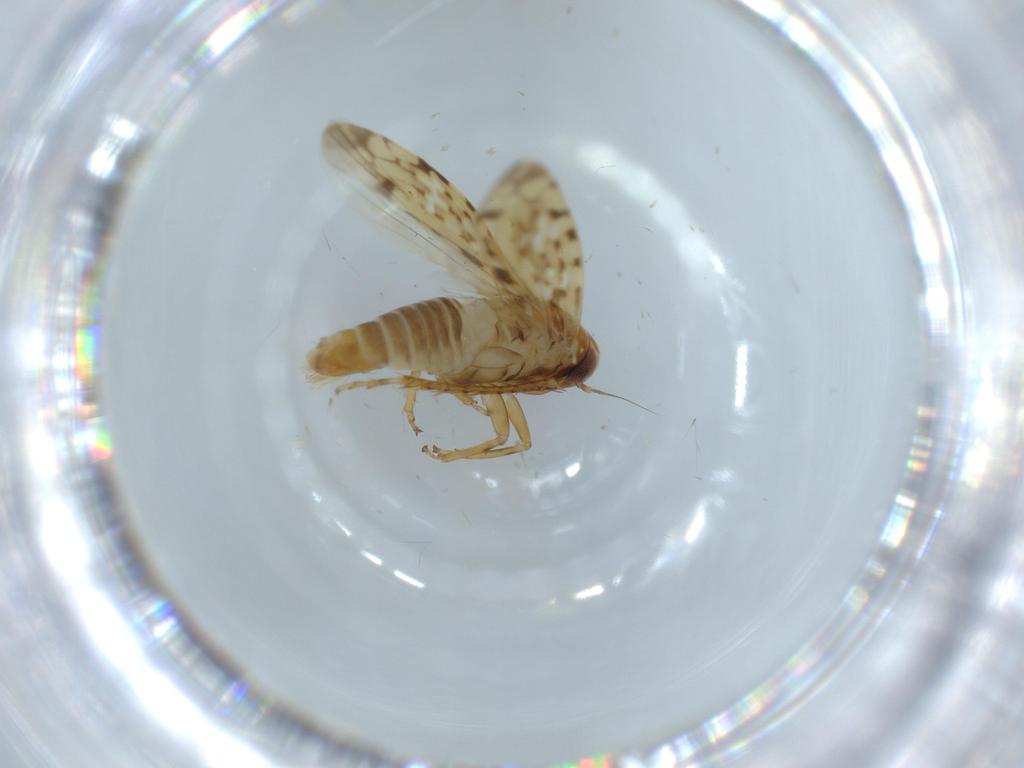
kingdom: Animalia
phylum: Arthropoda
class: Insecta
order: Hemiptera
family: Cicadellidae
